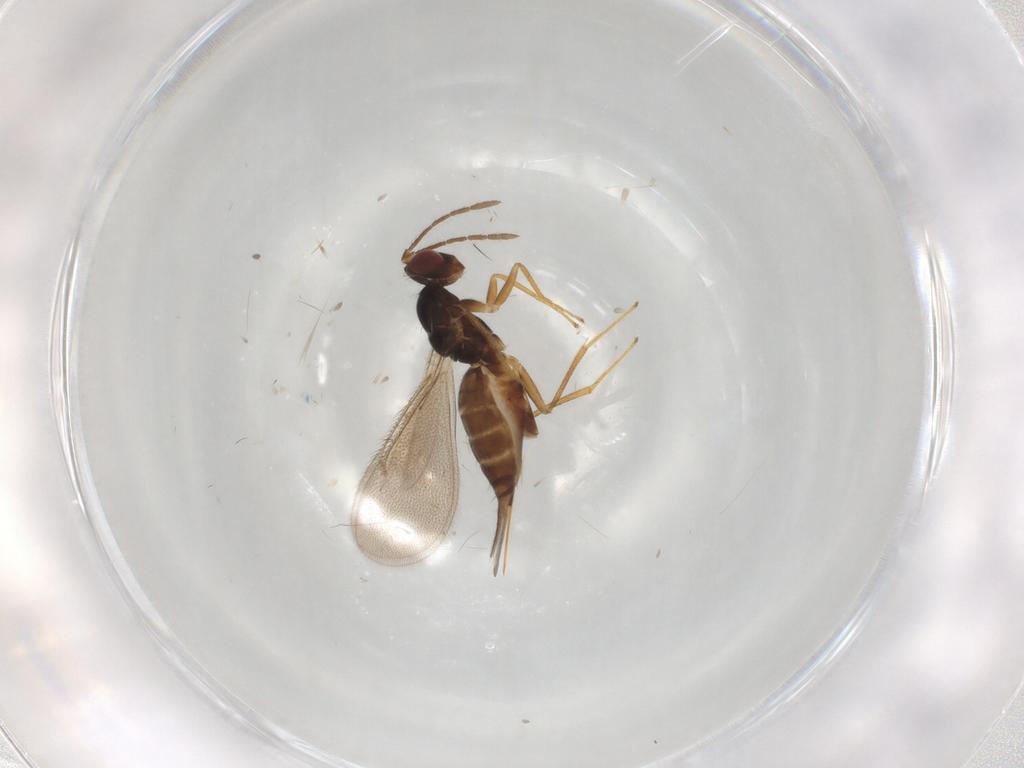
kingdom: Animalia
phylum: Arthropoda
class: Insecta
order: Hymenoptera
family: Eulophidae
